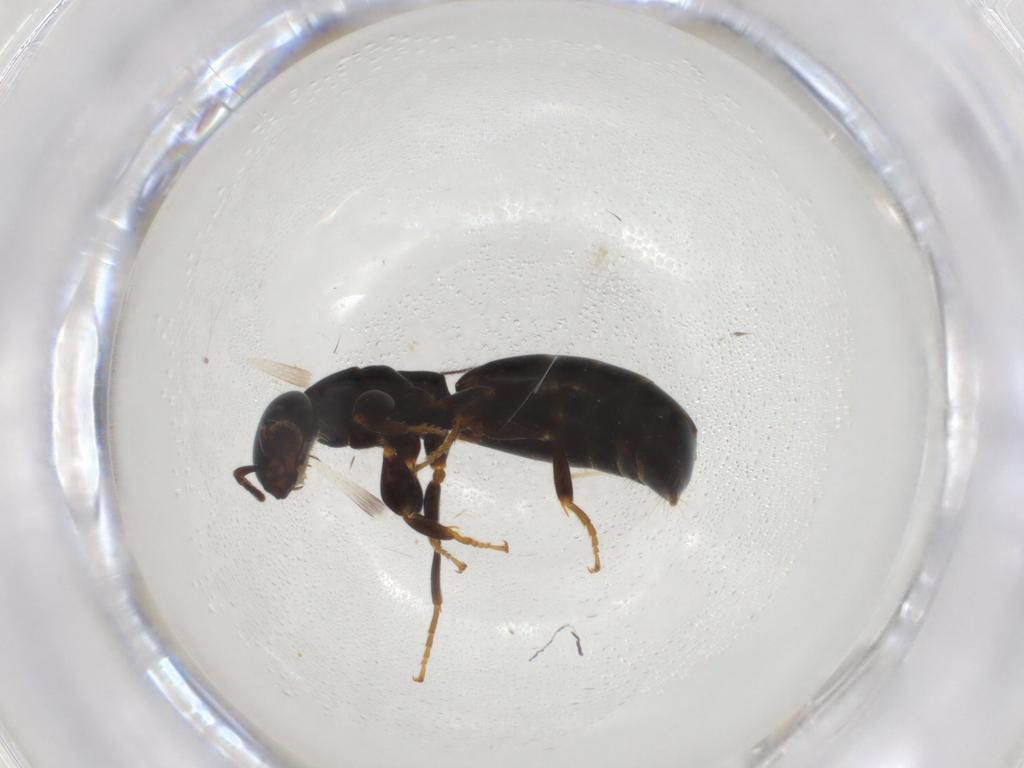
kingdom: Animalia
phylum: Arthropoda
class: Insecta
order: Hymenoptera
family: Bethylidae
